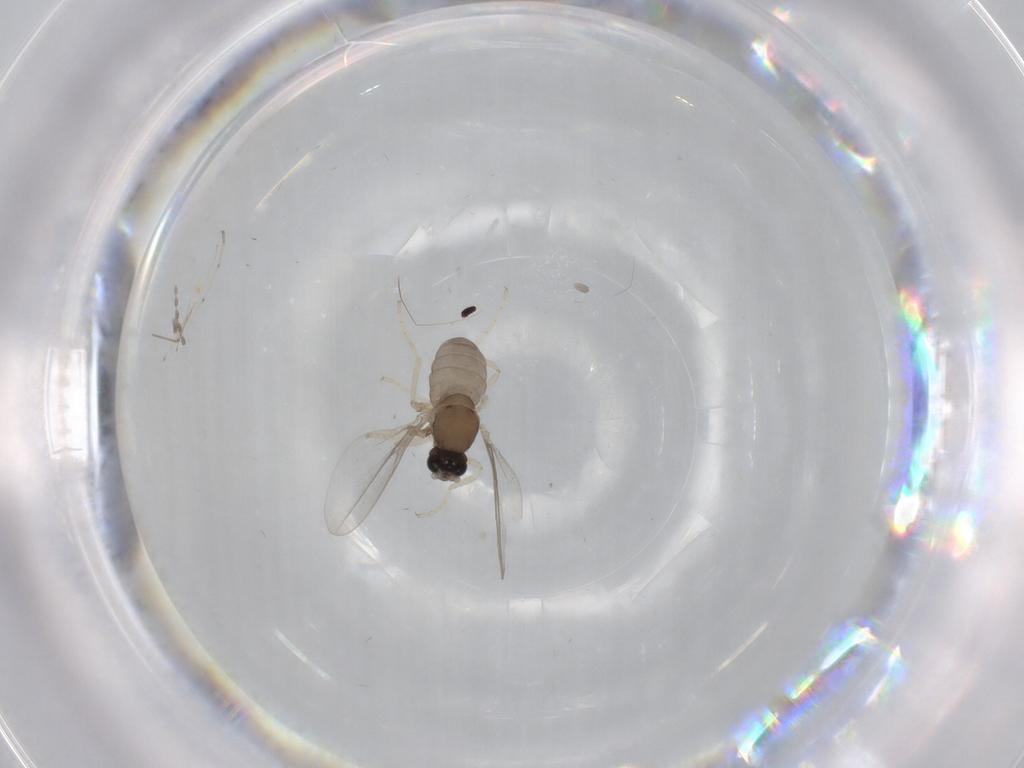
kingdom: Animalia
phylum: Arthropoda
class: Insecta
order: Diptera
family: Cecidomyiidae
